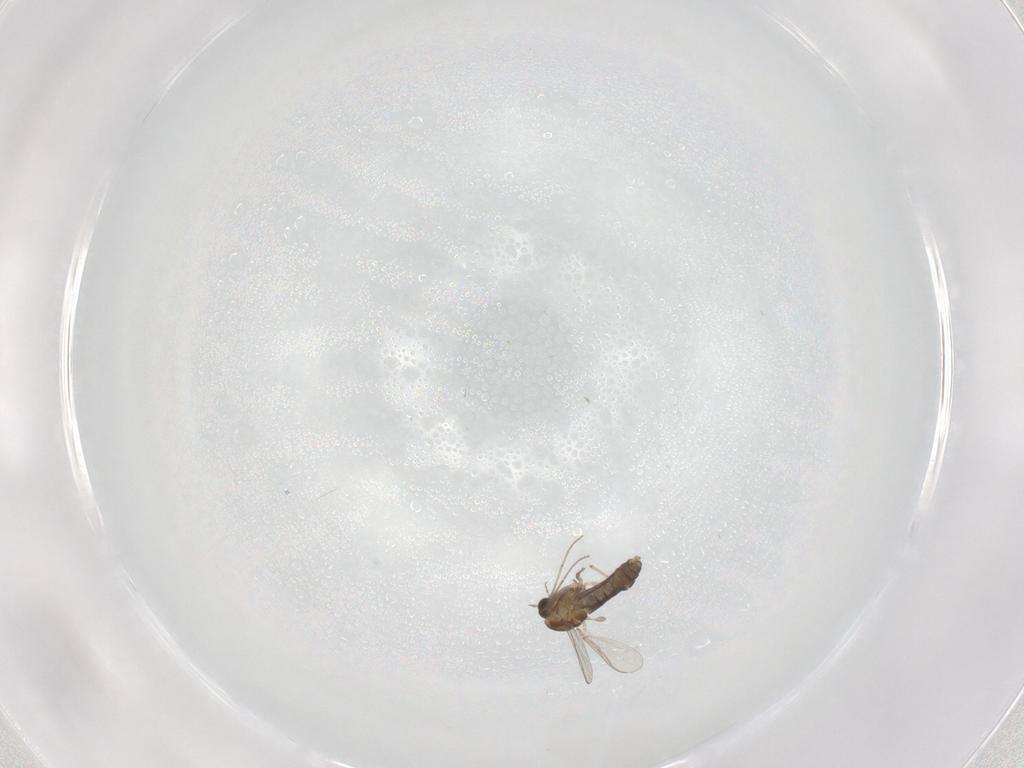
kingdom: Animalia
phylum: Arthropoda
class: Insecta
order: Diptera
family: Chironomidae
